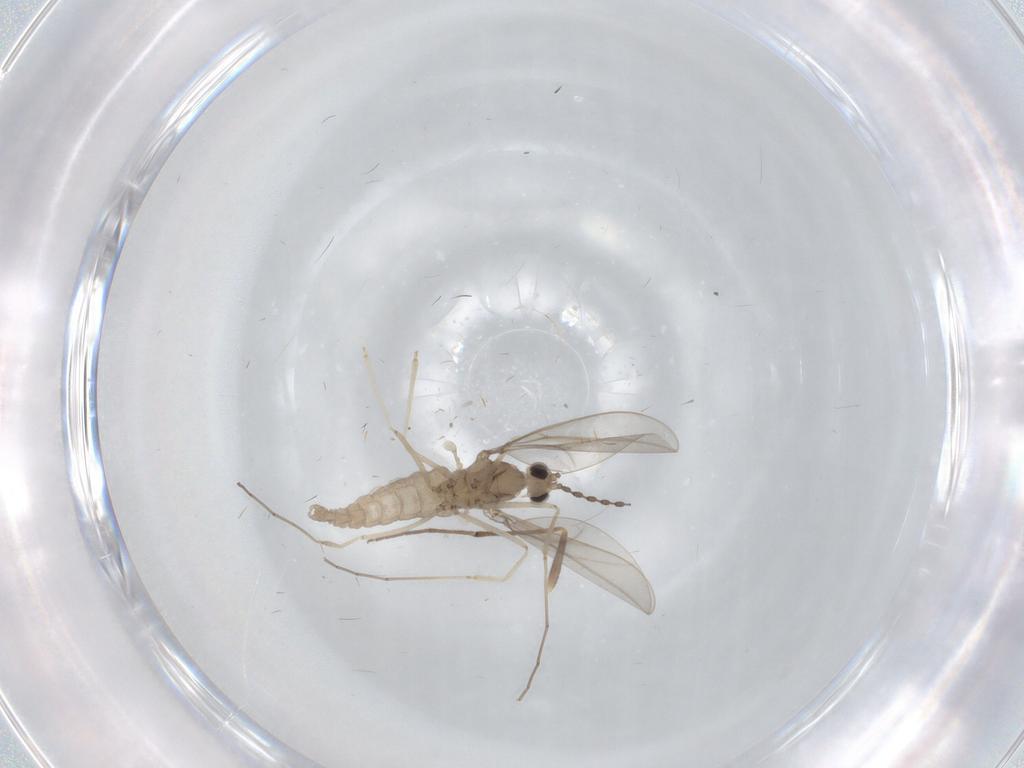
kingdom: Animalia
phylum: Arthropoda
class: Insecta
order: Diptera
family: Cecidomyiidae
